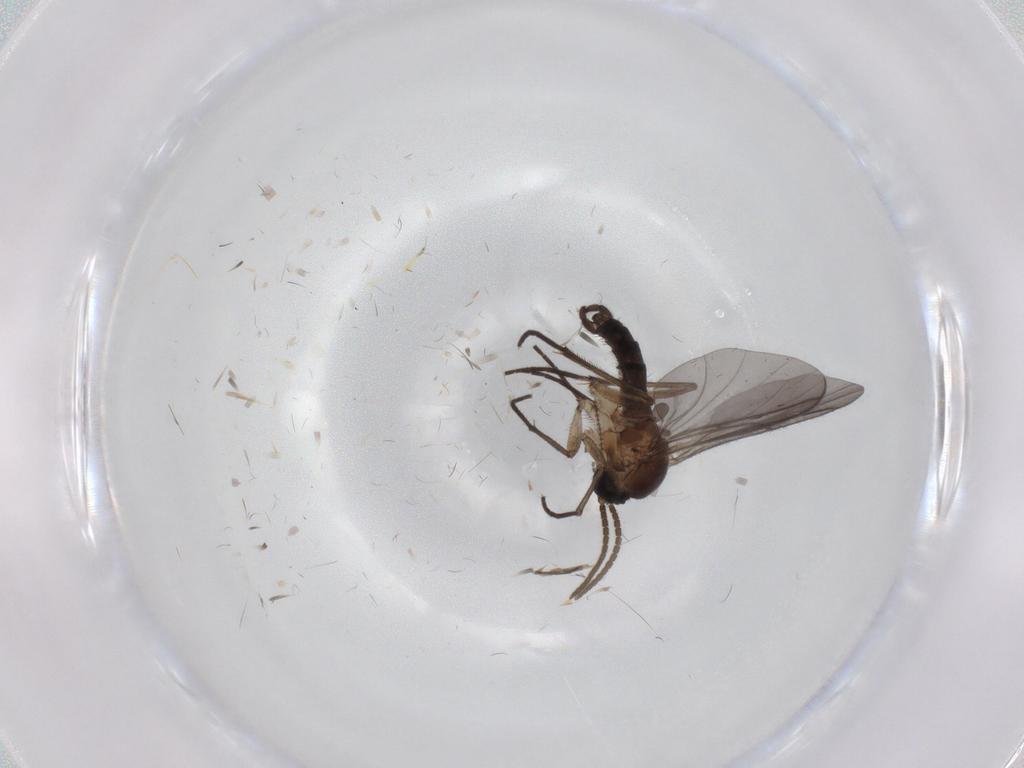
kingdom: Animalia
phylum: Arthropoda
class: Insecta
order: Diptera
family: Chironomidae
